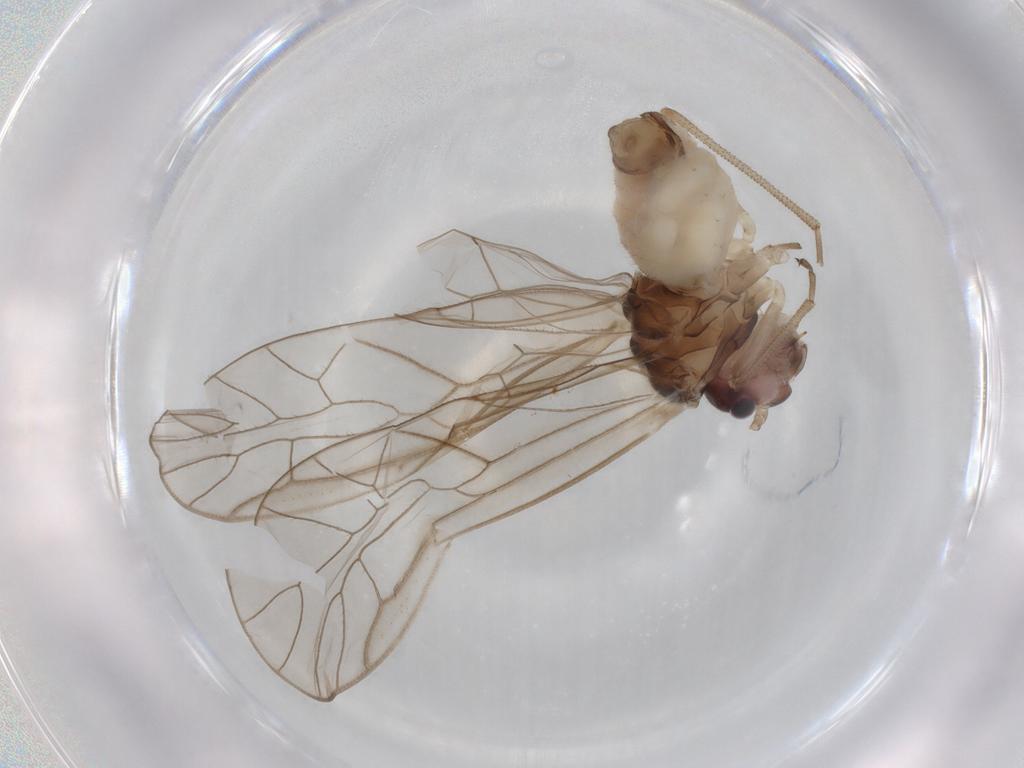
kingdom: Animalia
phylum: Arthropoda
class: Insecta
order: Psocodea
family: Stenopsocidae
